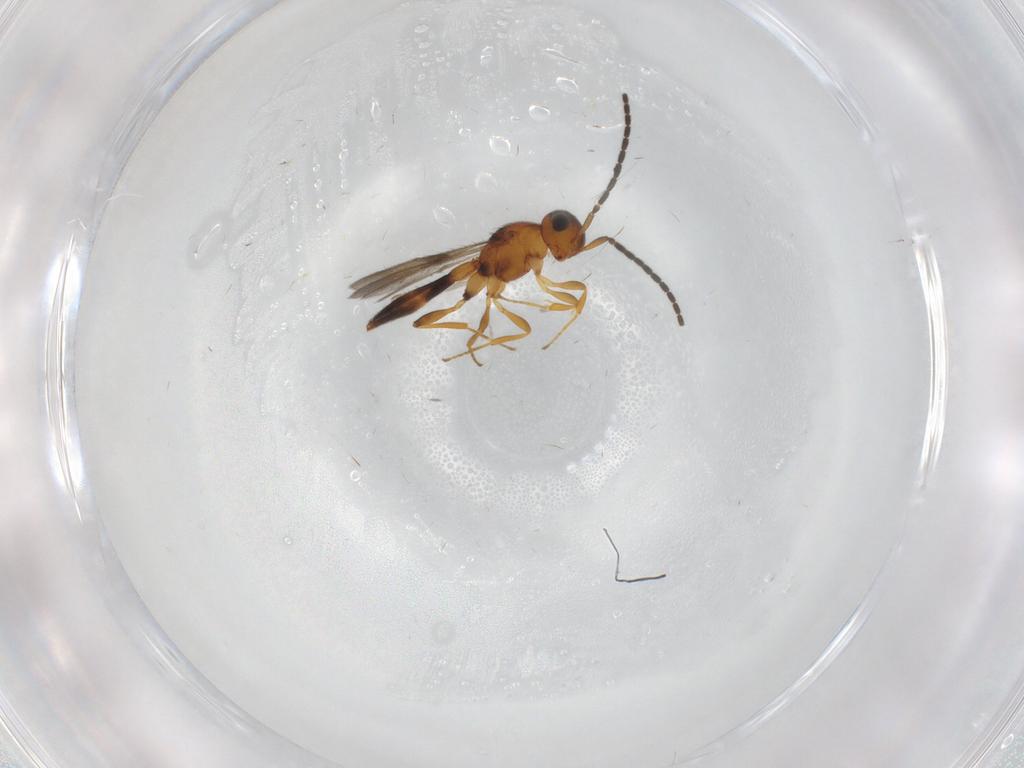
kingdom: Animalia
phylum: Arthropoda
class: Insecta
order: Hymenoptera
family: Scelionidae
